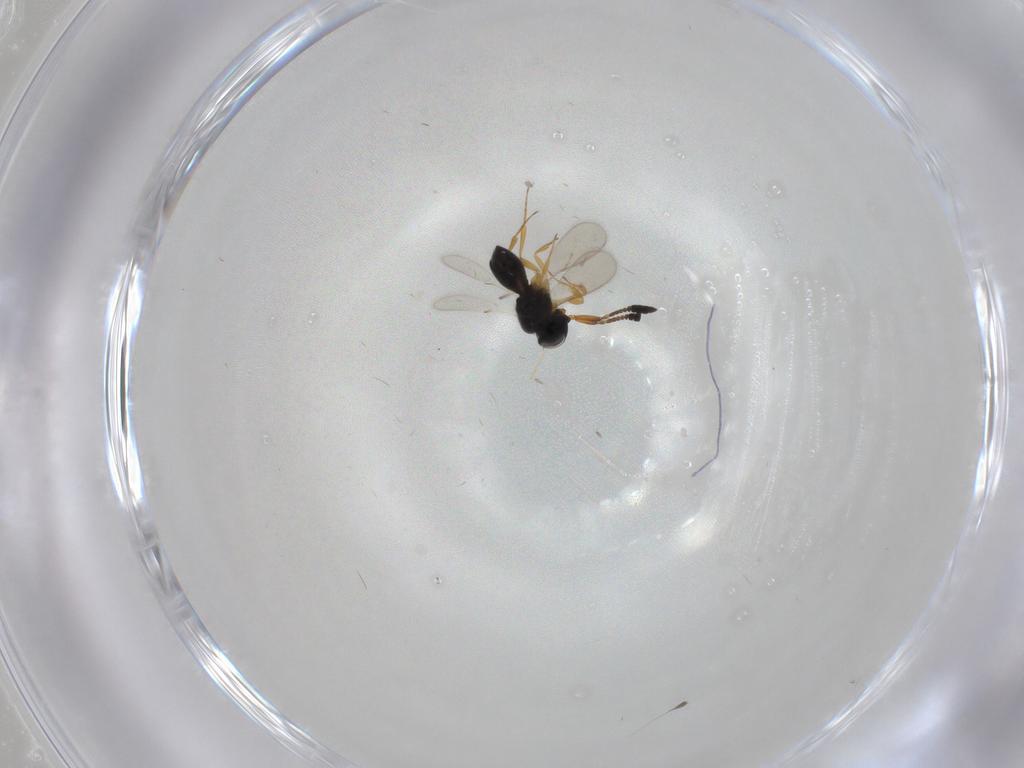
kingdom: Animalia
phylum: Arthropoda
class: Insecta
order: Hymenoptera
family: Scelionidae
